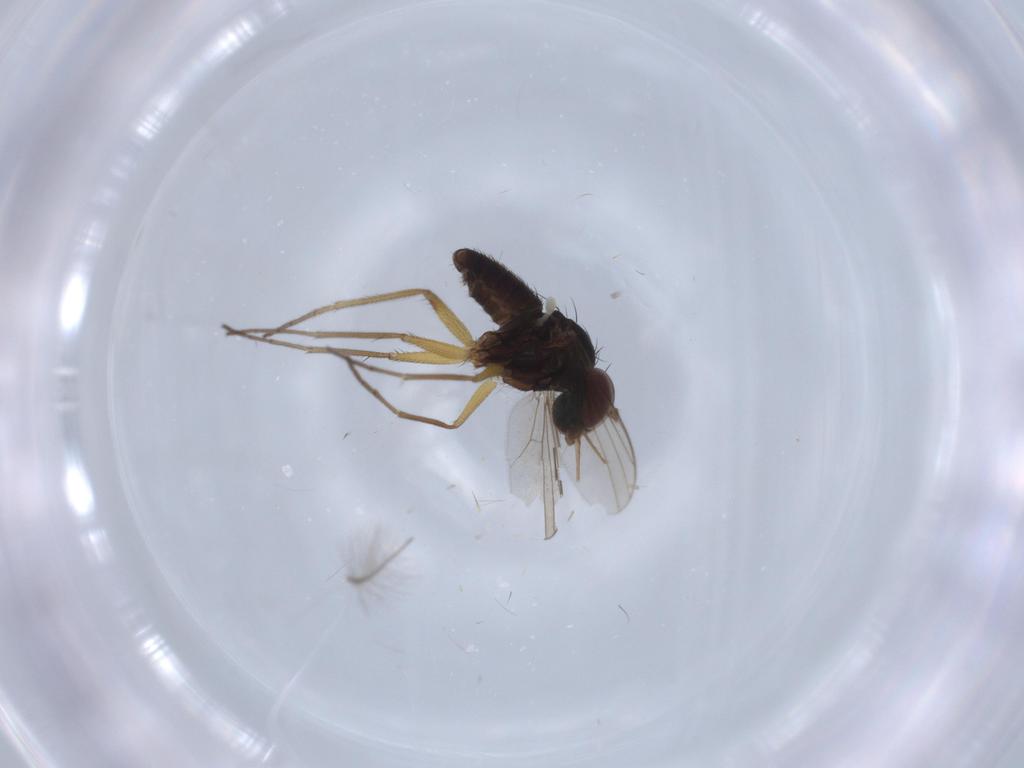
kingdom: Animalia
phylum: Arthropoda
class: Insecta
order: Diptera
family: Dolichopodidae
